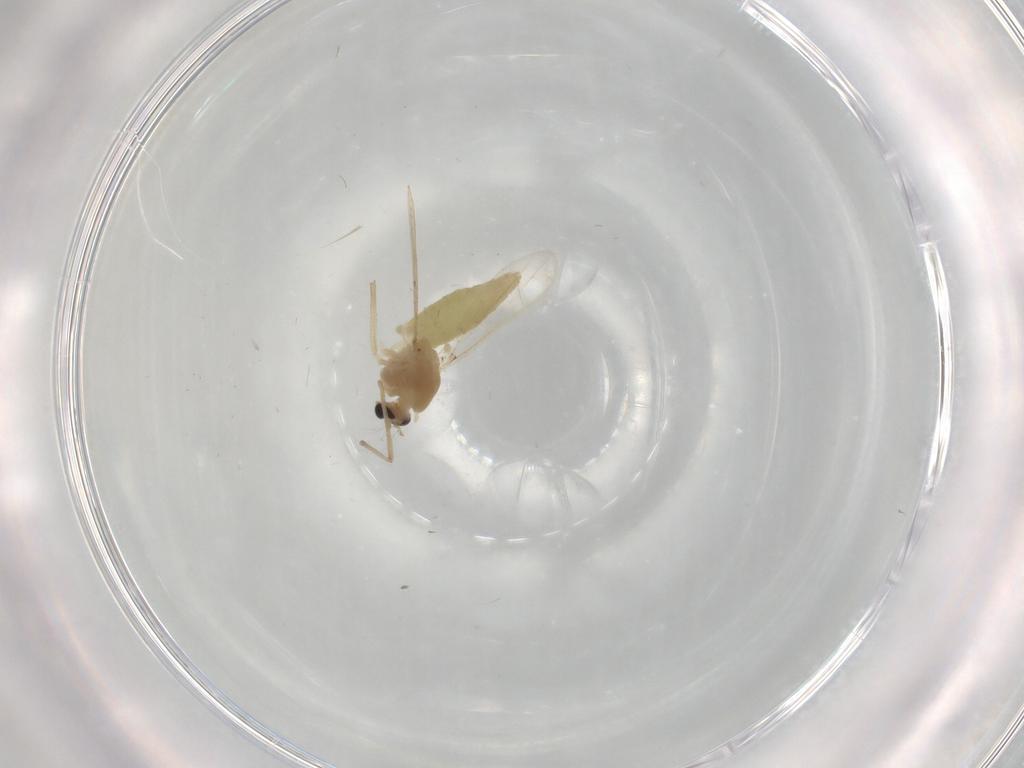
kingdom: Animalia
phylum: Arthropoda
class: Insecta
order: Diptera
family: Chironomidae
